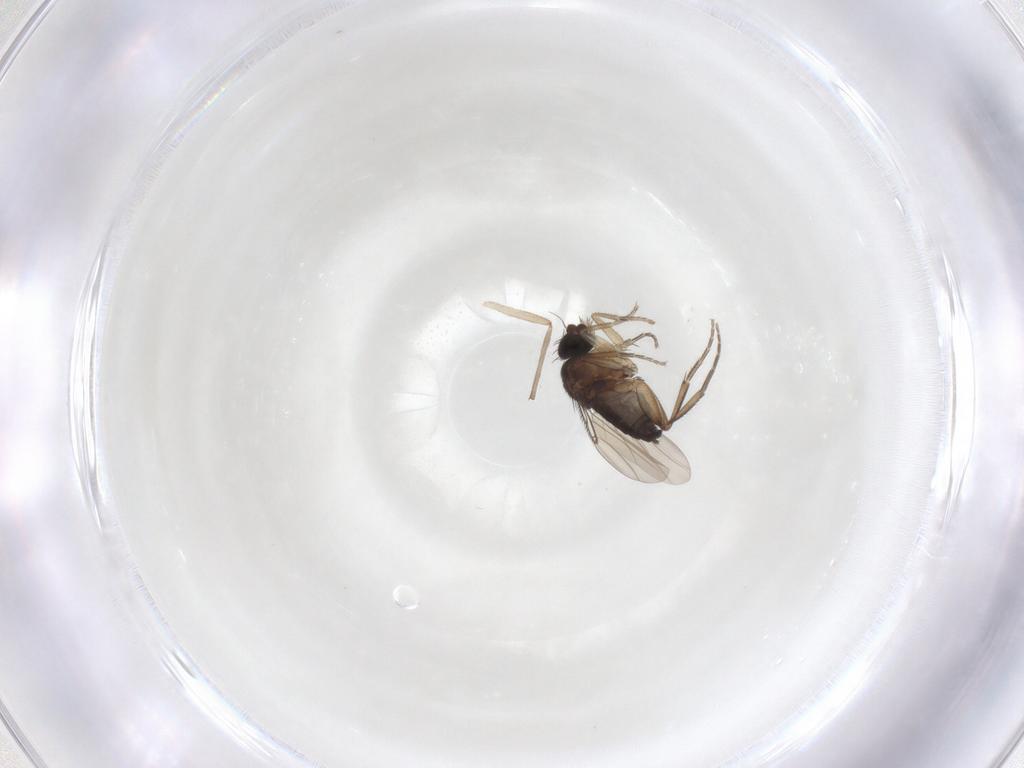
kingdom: Animalia
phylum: Arthropoda
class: Insecta
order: Diptera
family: Phoridae
